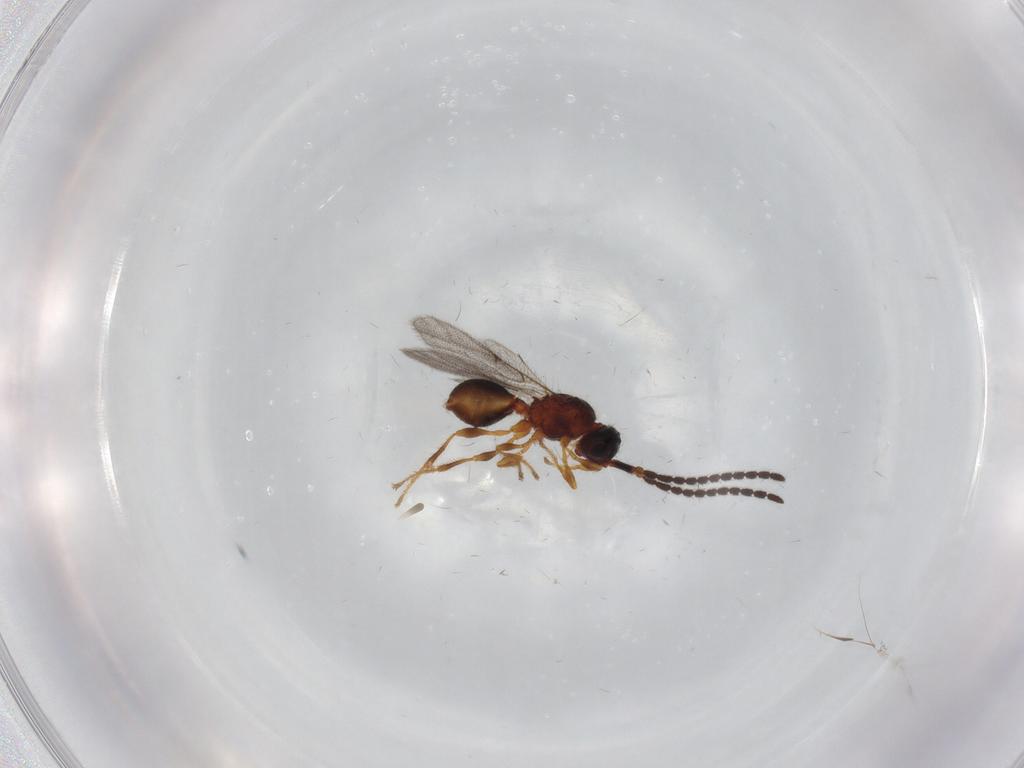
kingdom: Animalia
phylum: Arthropoda
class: Insecta
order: Hymenoptera
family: Diapriidae
